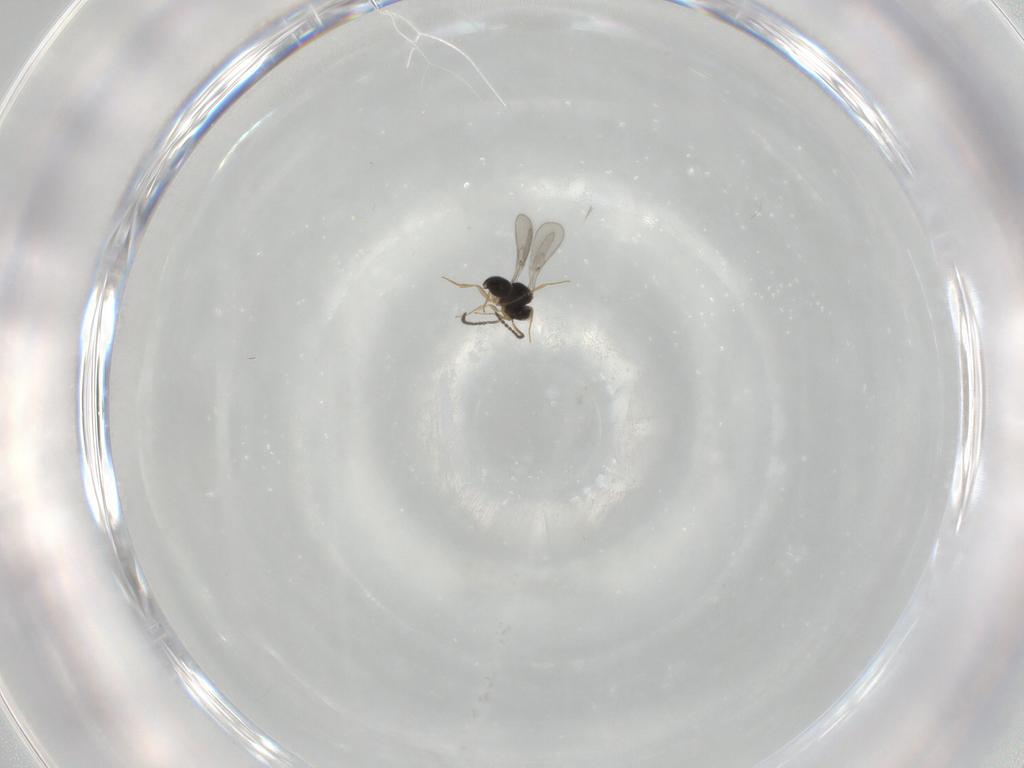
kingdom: Animalia
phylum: Arthropoda
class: Insecta
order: Hymenoptera
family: Scelionidae
